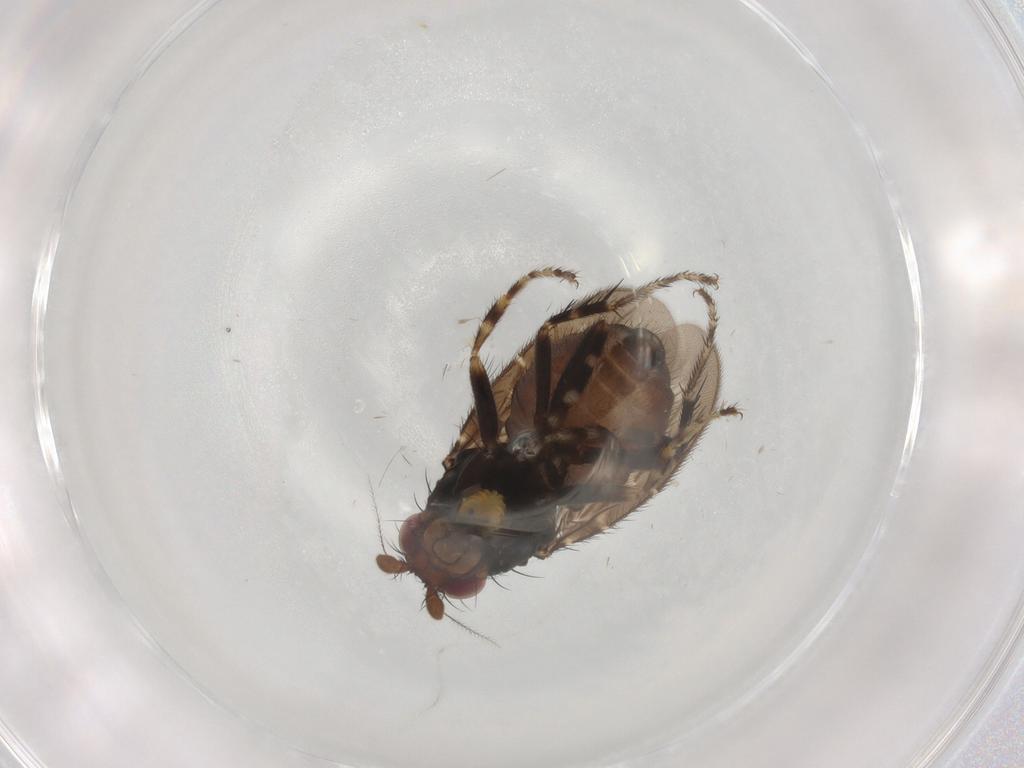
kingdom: Animalia
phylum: Arthropoda
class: Insecta
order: Diptera
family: Sphaeroceridae
